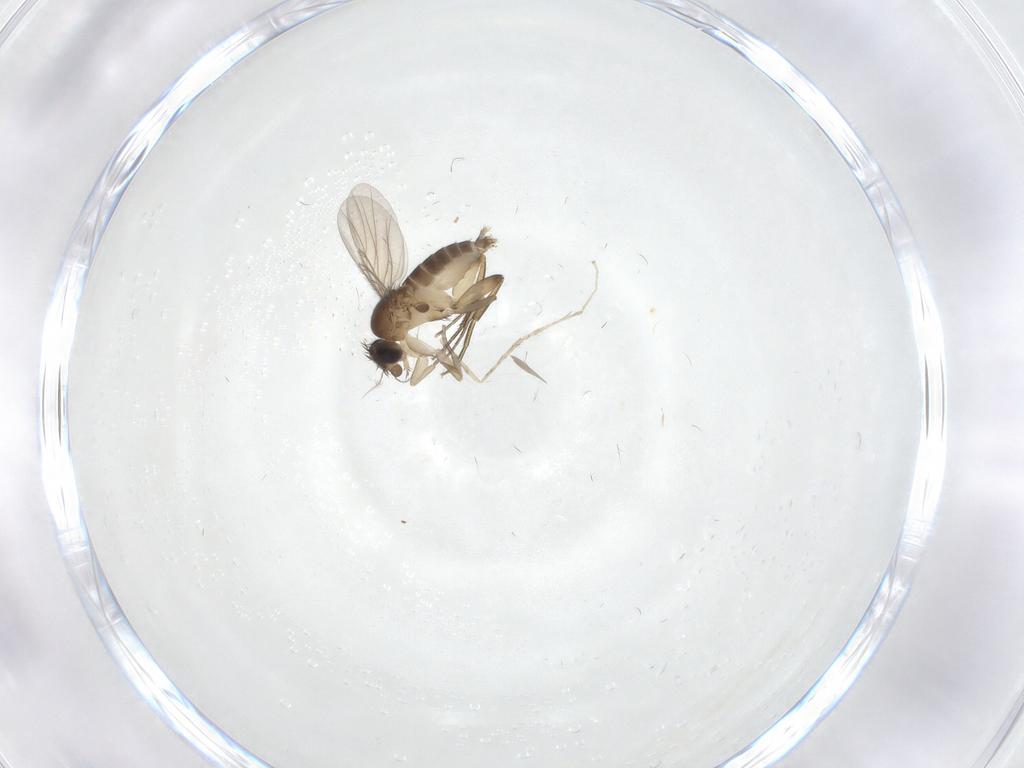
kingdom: Animalia
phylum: Arthropoda
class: Insecta
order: Diptera
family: Phoridae
